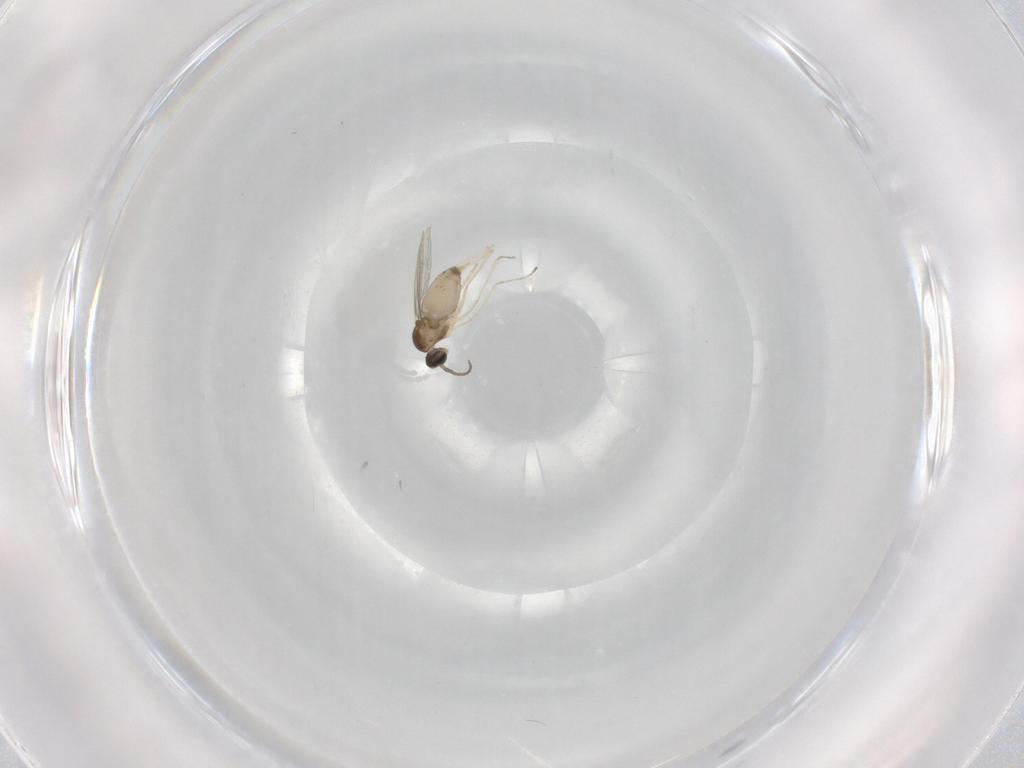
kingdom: Animalia
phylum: Arthropoda
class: Insecta
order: Diptera
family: Cecidomyiidae
